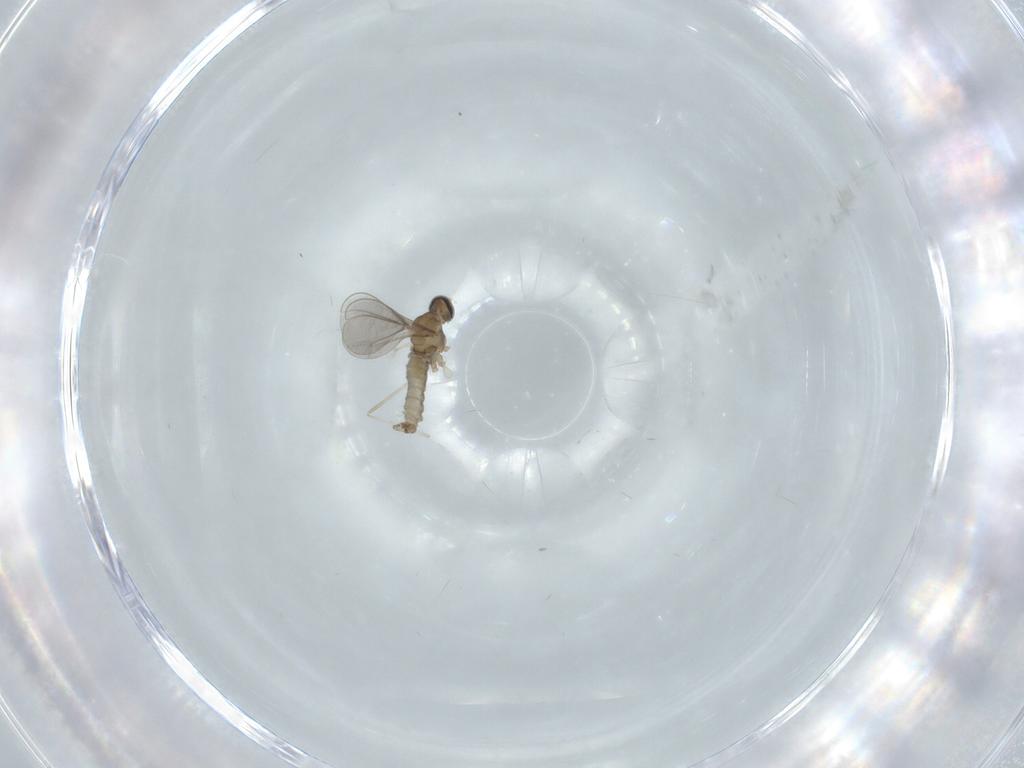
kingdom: Animalia
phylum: Arthropoda
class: Insecta
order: Diptera
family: Cecidomyiidae
